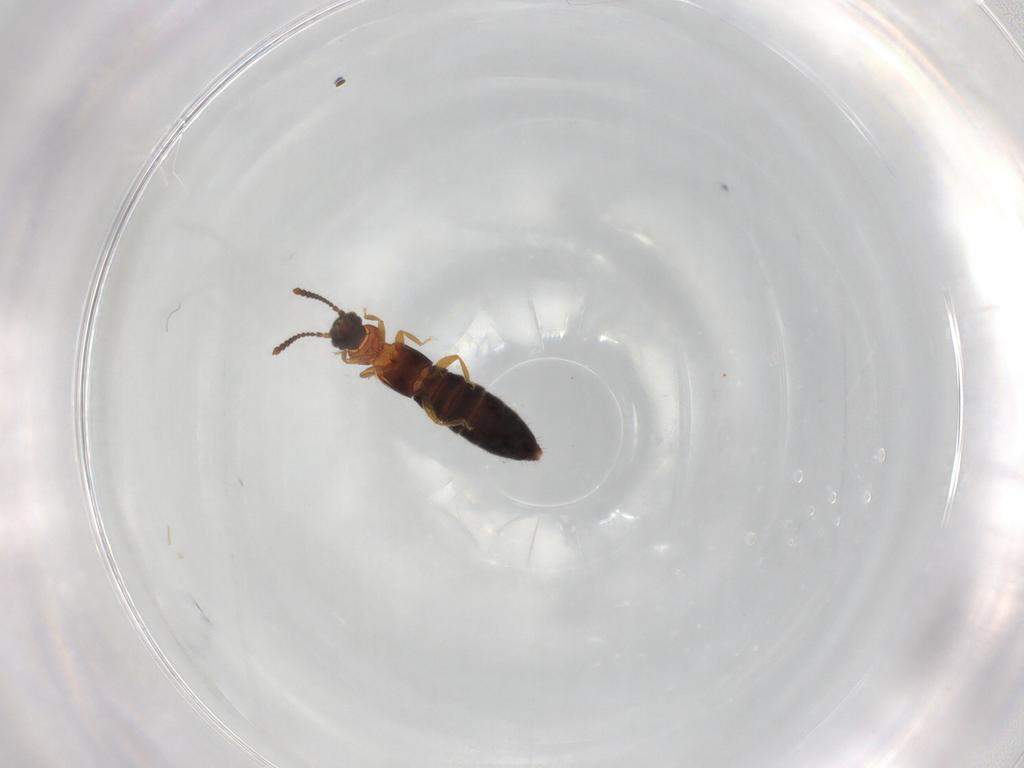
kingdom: Animalia
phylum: Arthropoda
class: Insecta
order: Coleoptera
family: Staphylinidae
